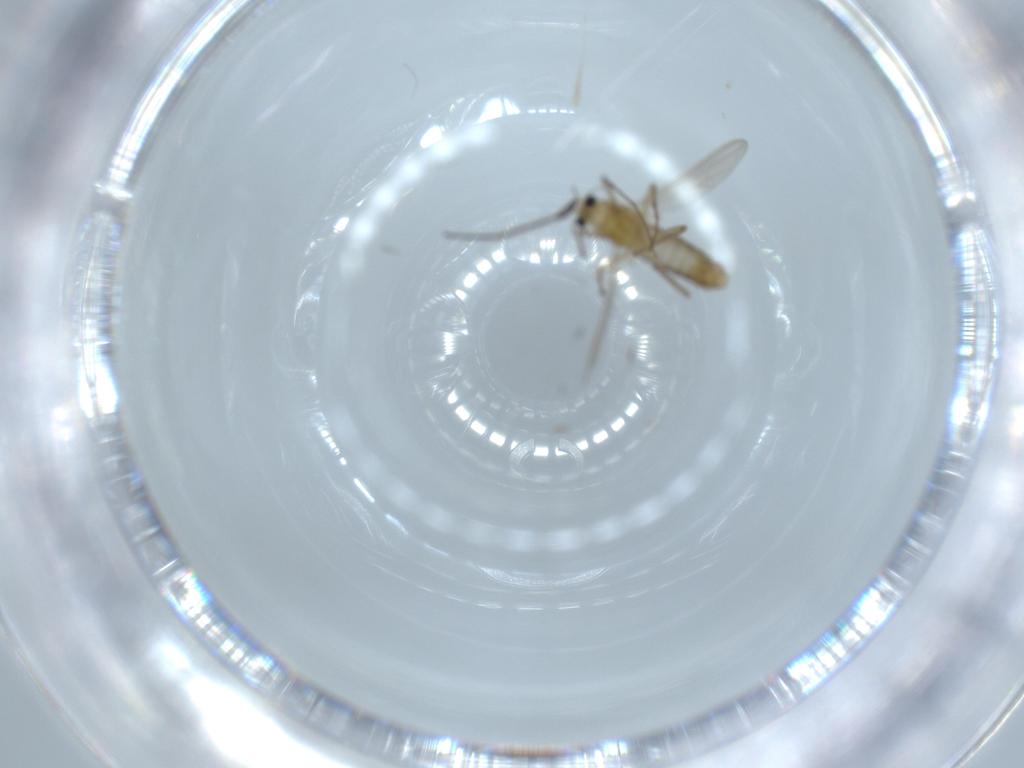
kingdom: Animalia
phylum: Arthropoda
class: Insecta
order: Diptera
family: Chironomidae
